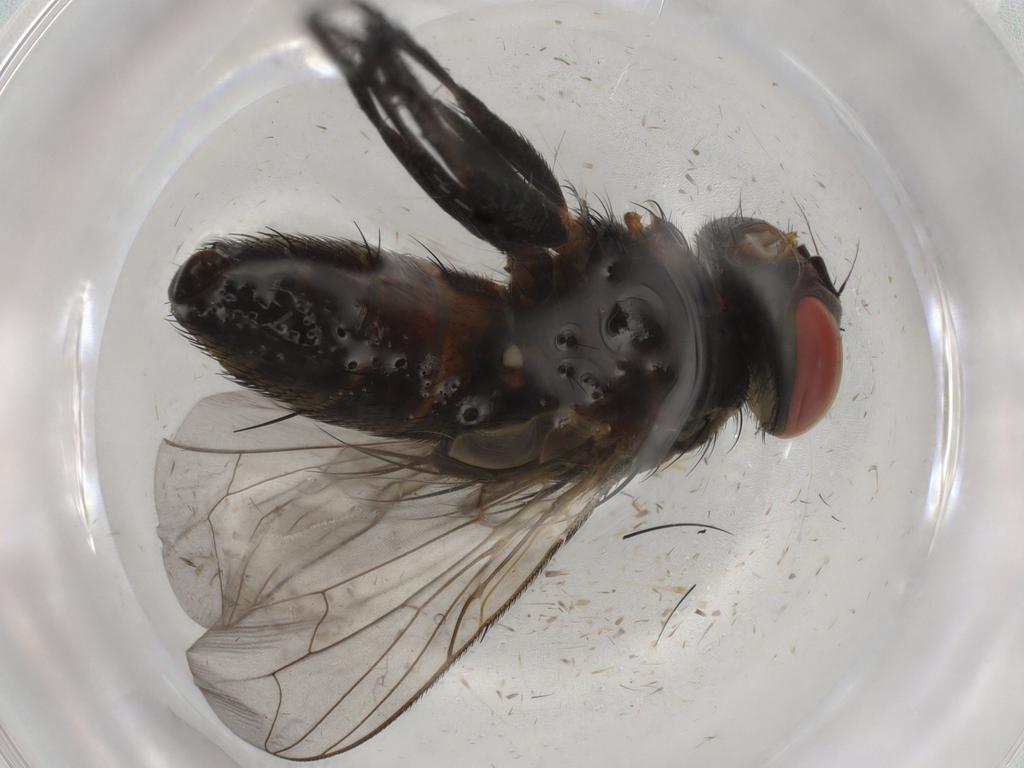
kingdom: Animalia
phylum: Arthropoda
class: Insecta
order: Diptera
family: Sarcophagidae
